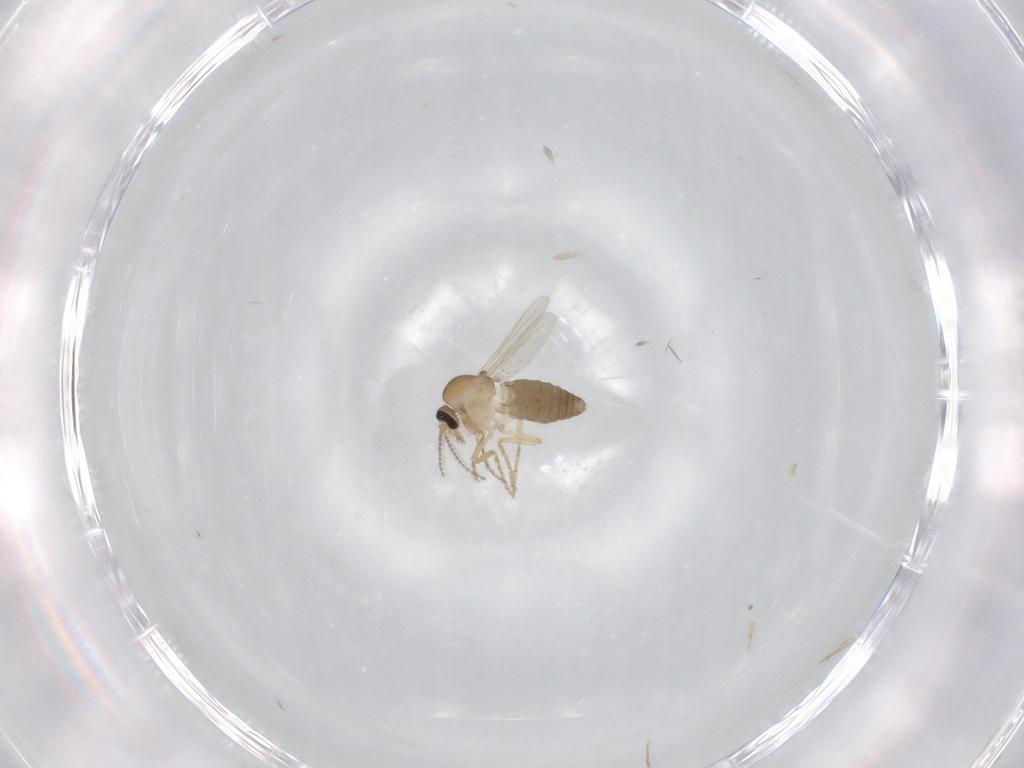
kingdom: Animalia
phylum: Arthropoda
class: Insecta
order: Diptera
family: Ceratopogonidae
